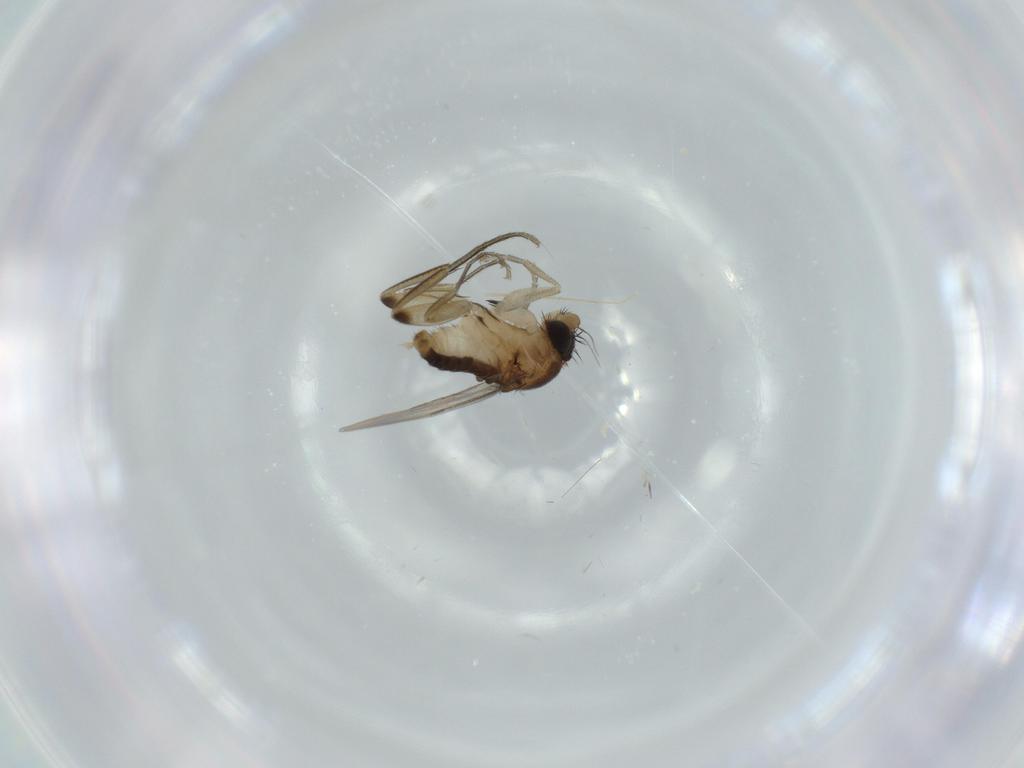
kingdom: Animalia
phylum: Arthropoda
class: Insecta
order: Diptera
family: Phoridae
